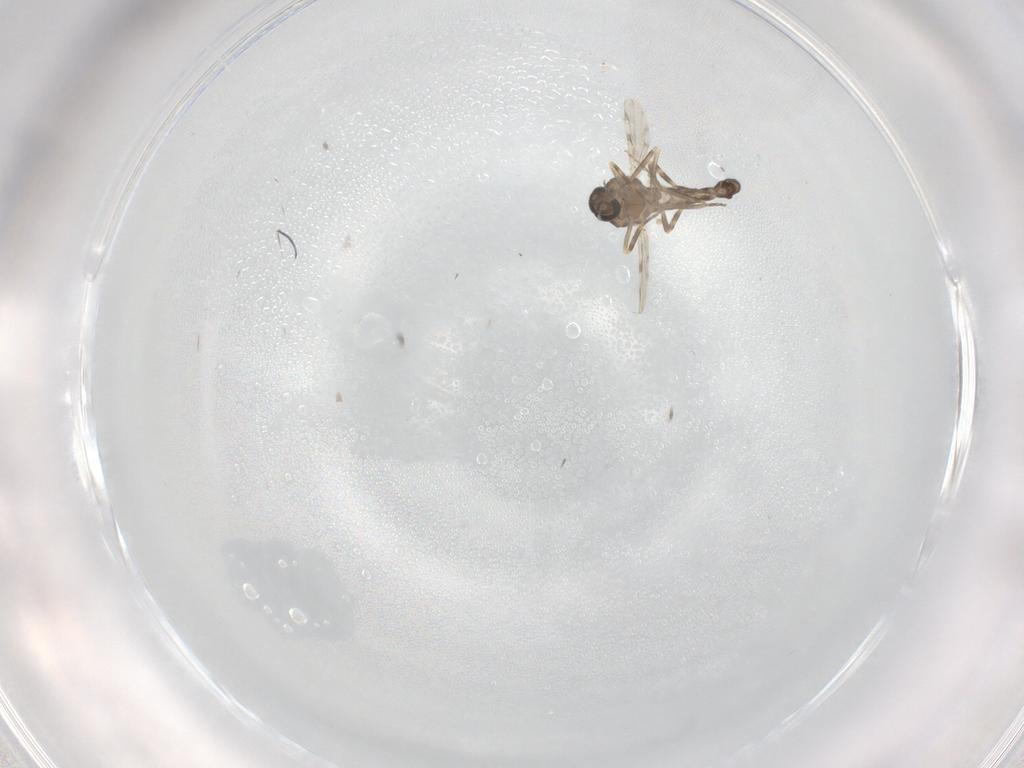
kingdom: Animalia
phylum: Arthropoda
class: Insecta
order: Diptera
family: Ceratopogonidae
